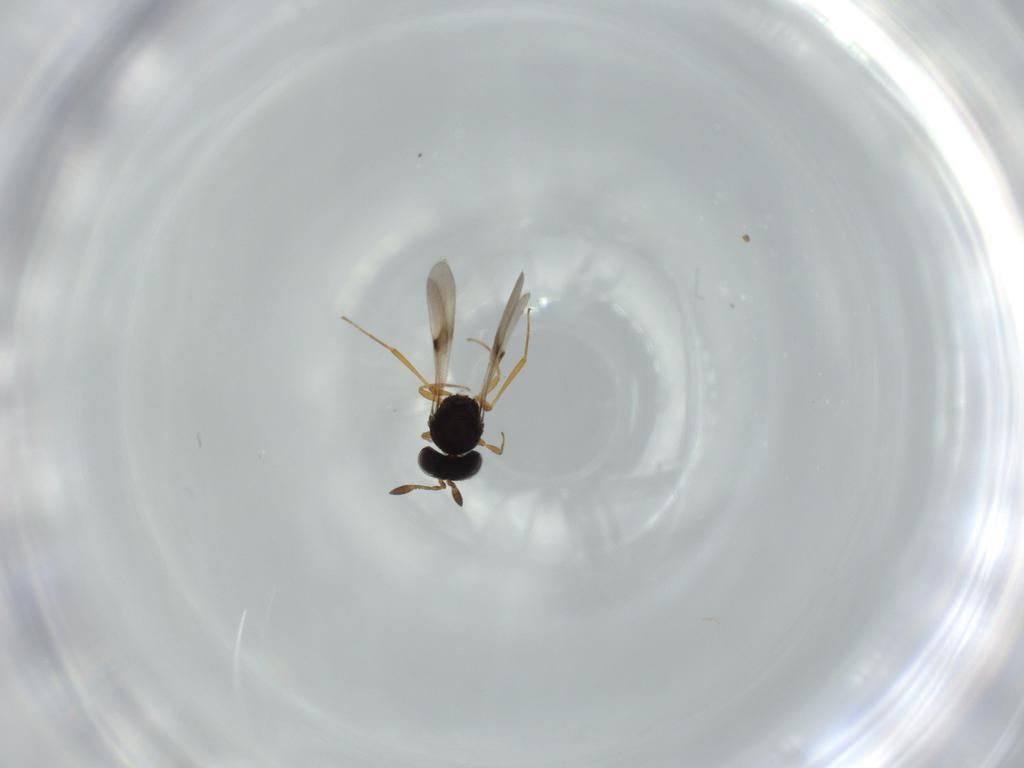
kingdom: Animalia
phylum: Arthropoda
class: Insecta
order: Hymenoptera
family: Scelionidae
